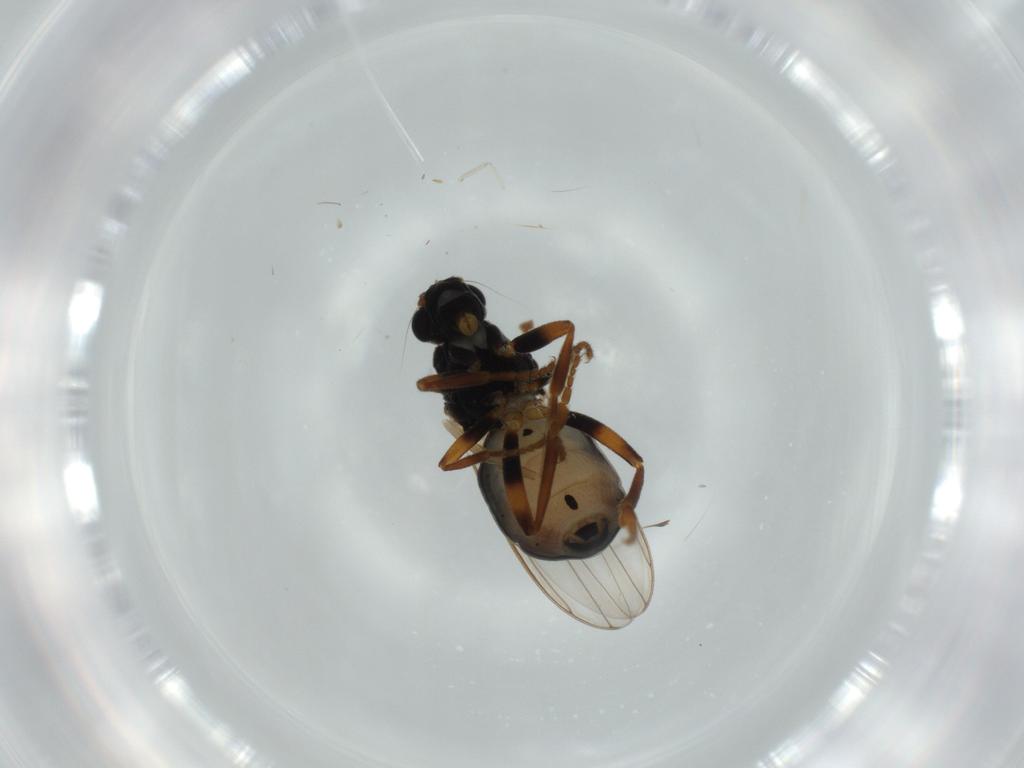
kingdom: Animalia
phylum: Arthropoda
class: Insecta
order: Diptera
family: Sphaeroceridae
